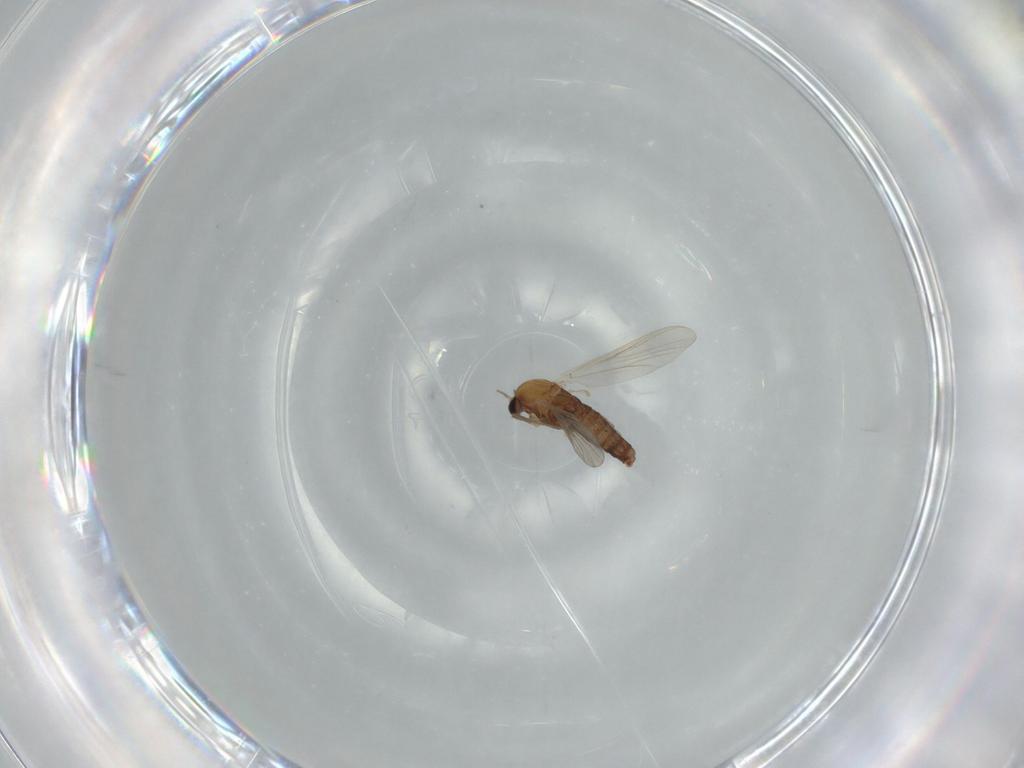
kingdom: Animalia
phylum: Arthropoda
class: Insecta
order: Diptera
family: Chironomidae
